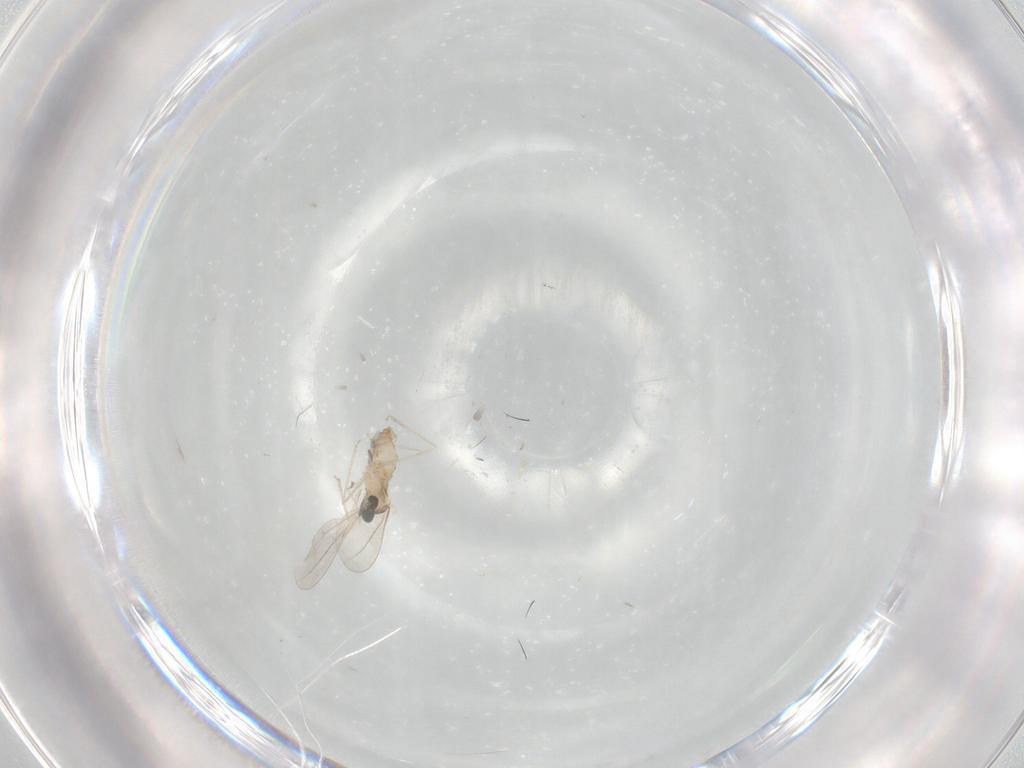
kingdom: Animalia
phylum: Arthropoda
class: Insecta
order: Diptera
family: Cecidomyiidae
